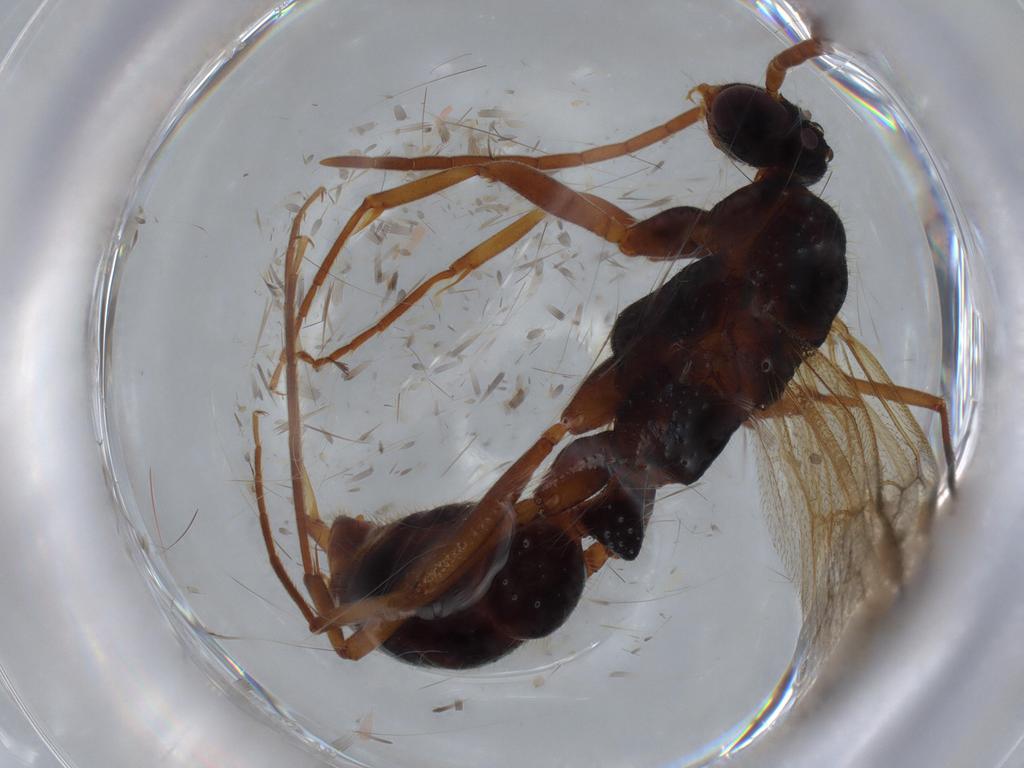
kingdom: Animalia
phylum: Arthropoda
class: Insecta
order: Hymenoptera
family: Formicidae
